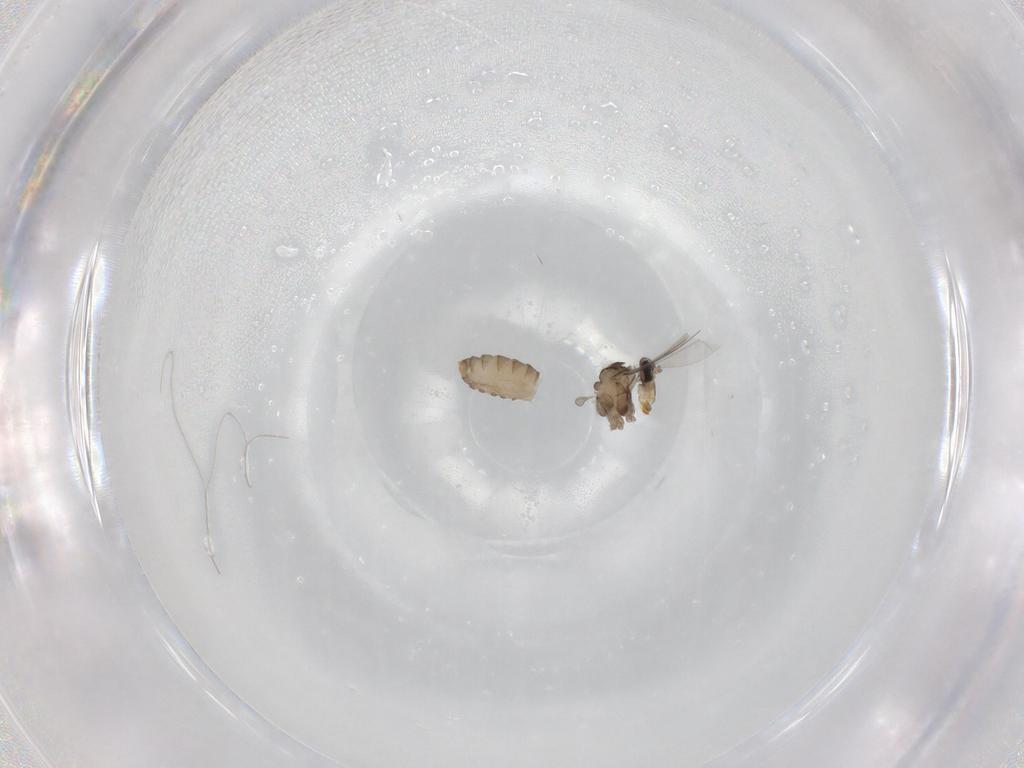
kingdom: Animalia
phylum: Arthropoda
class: Insecta
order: Diptera
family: Cecidomyiidae
